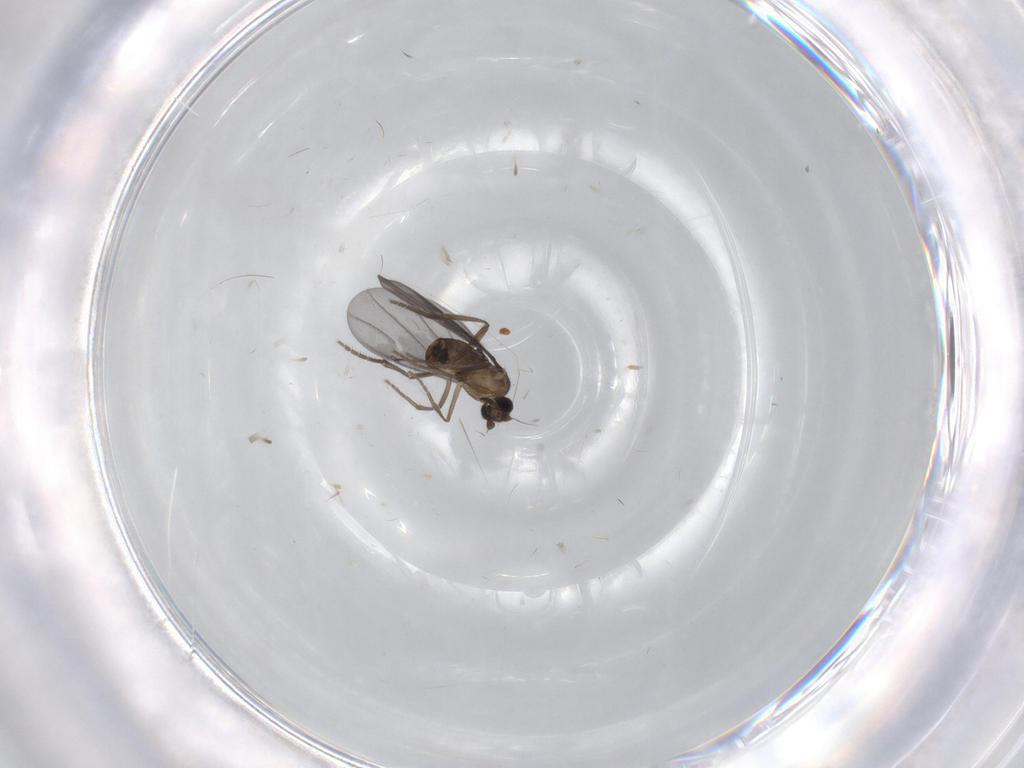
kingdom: Animalia
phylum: Arthropoda
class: Insecta
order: Diptera
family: Phoridae
